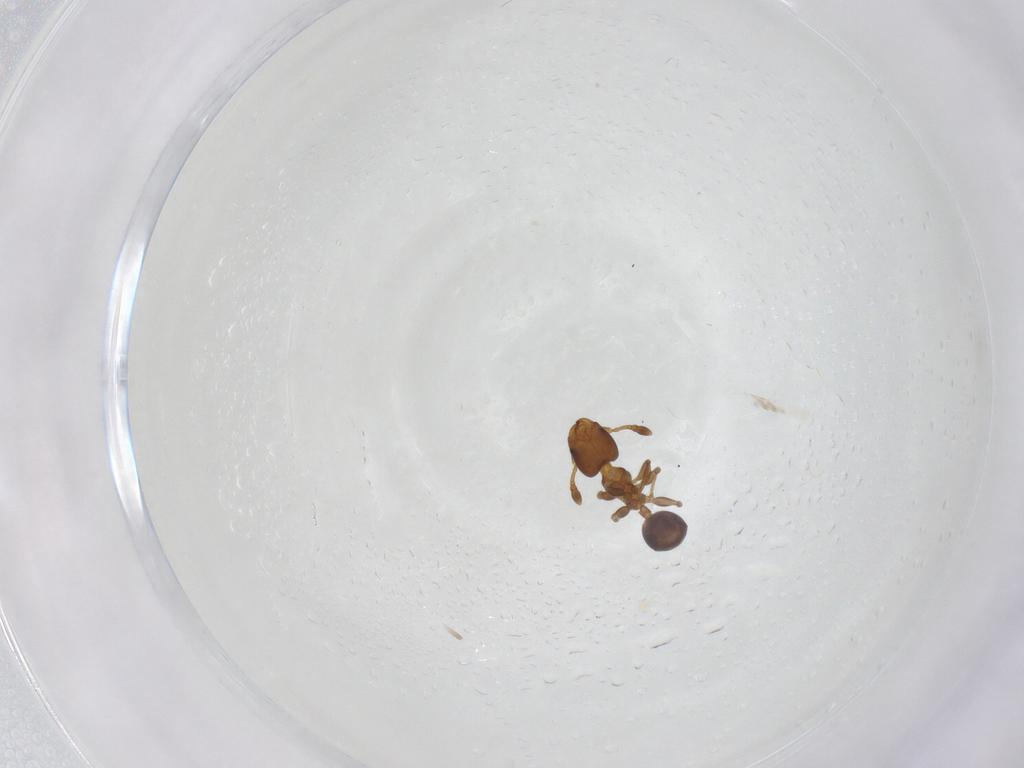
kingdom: Animalia
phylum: Arthropoda
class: Insecta
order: Hymenoptera
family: Formicidae
